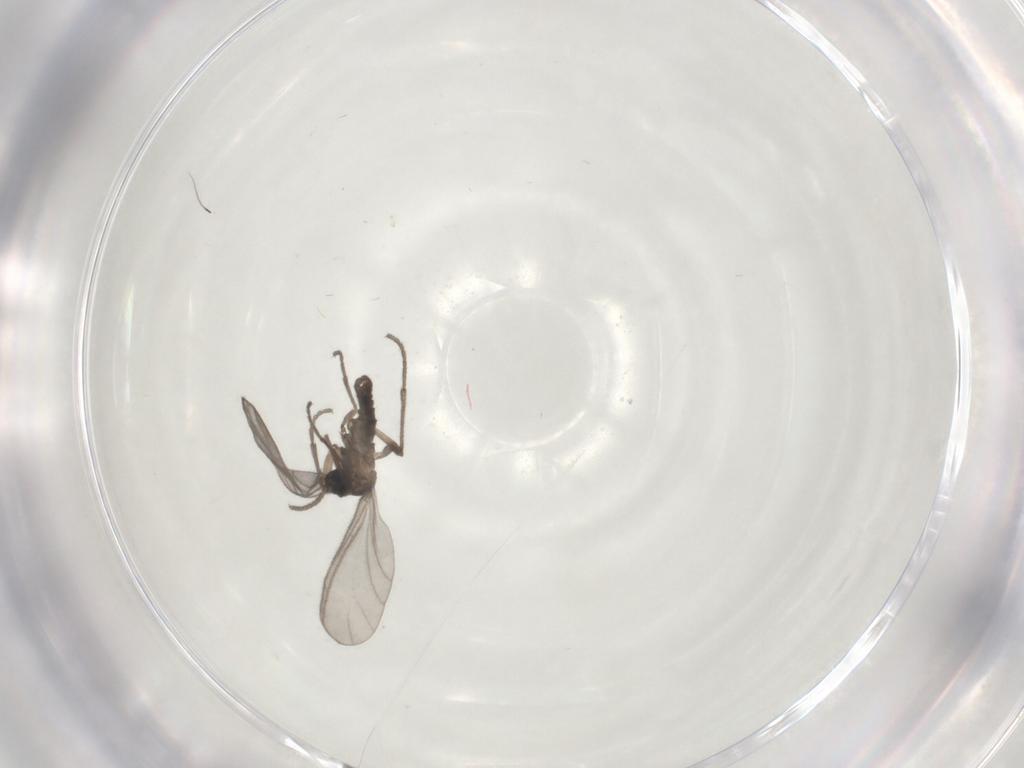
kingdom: Animalia
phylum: Arthropoda
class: Insecta
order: Diptera
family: Sciaridae
